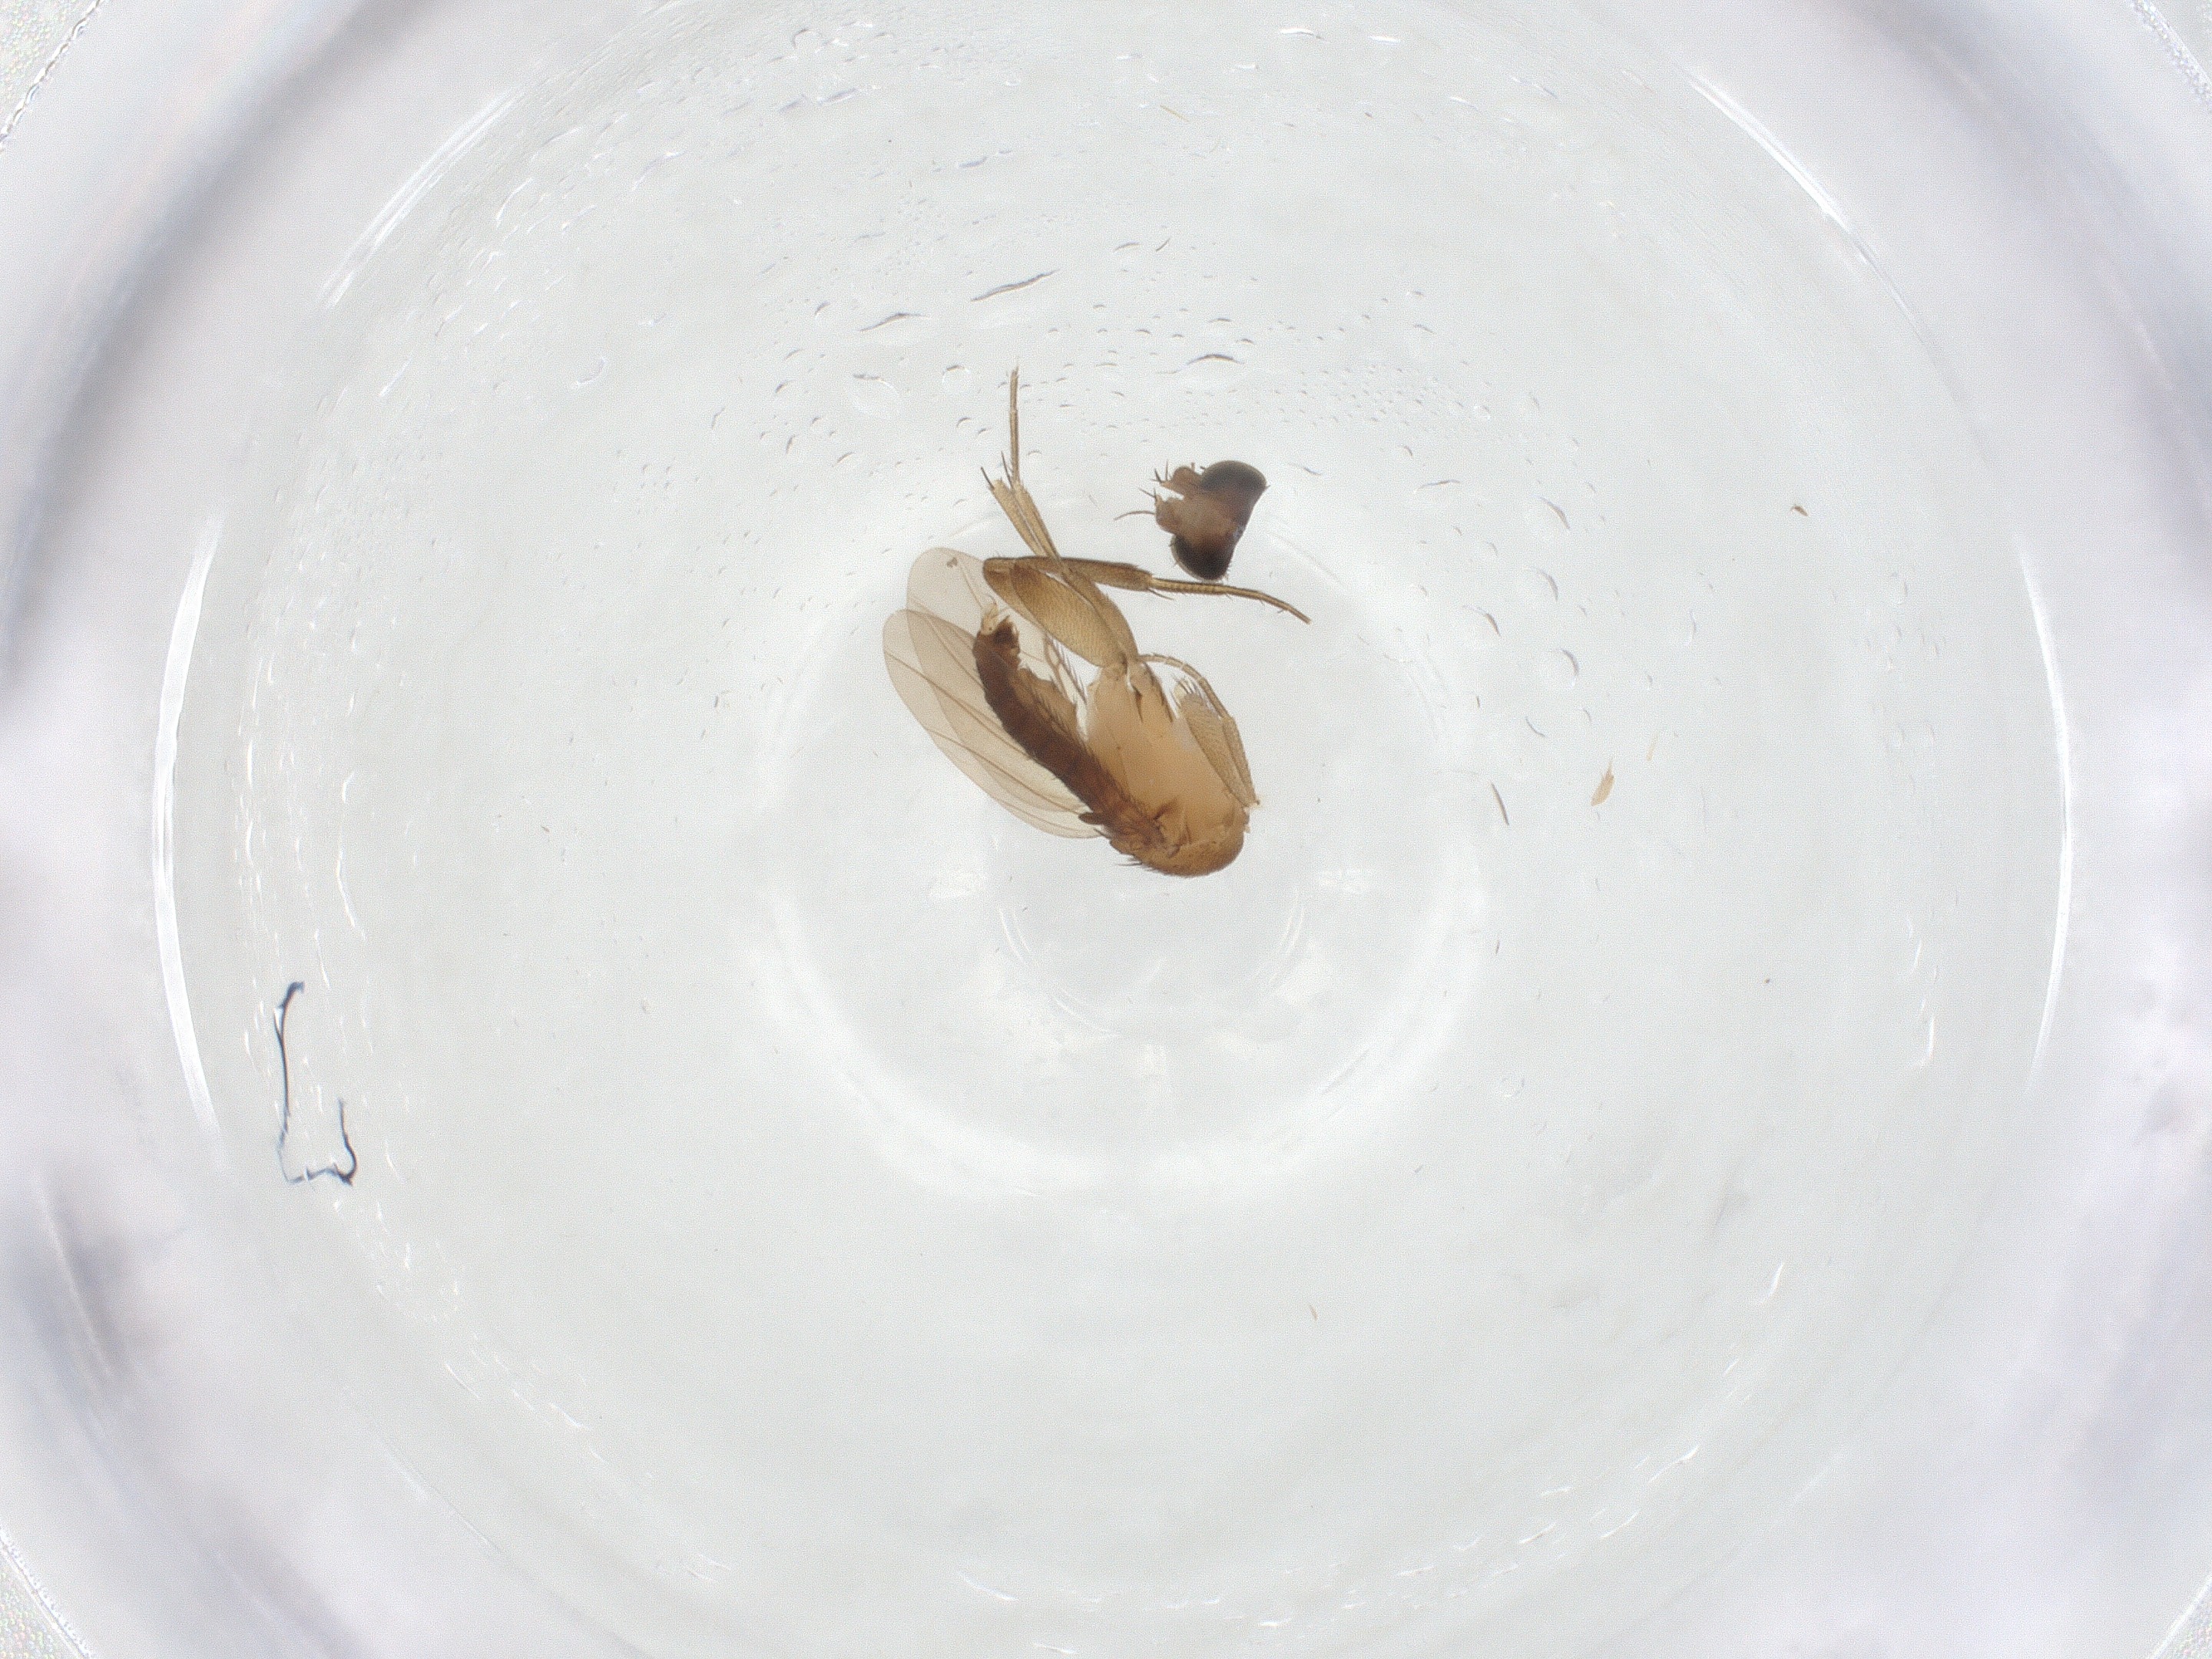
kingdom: Animalia
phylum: Arthropoda
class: Insecta
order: Diptera
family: Phoridae
